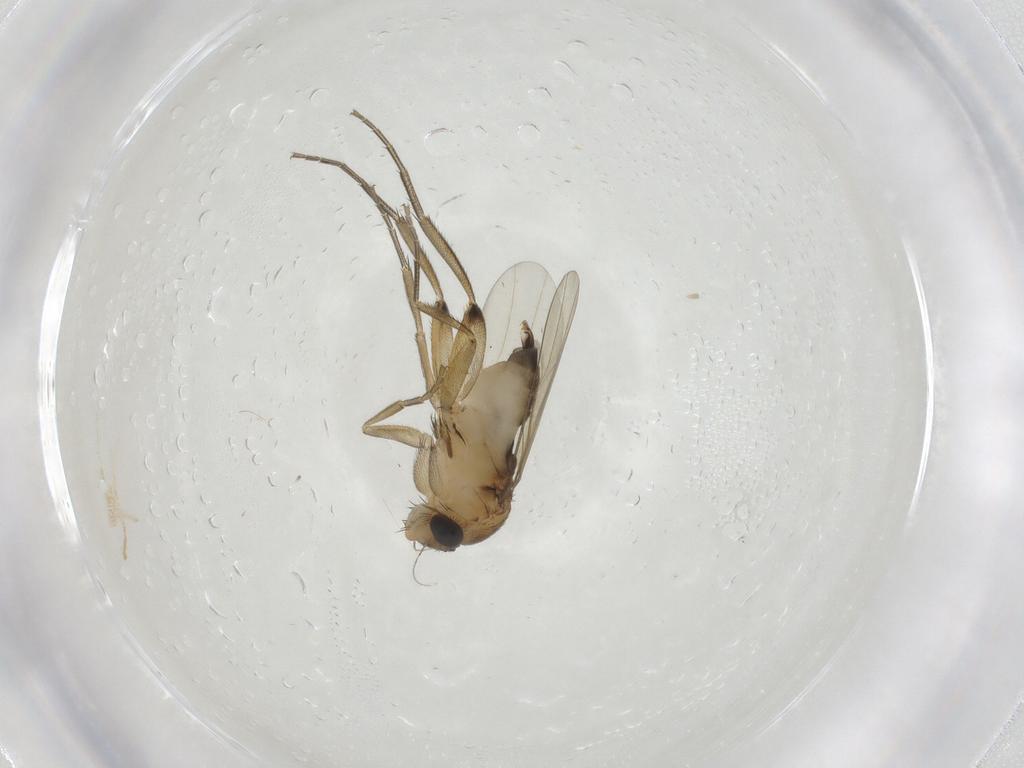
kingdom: Animalia
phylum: Arthropoda
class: Insecta
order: Diptera
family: Phoridae
